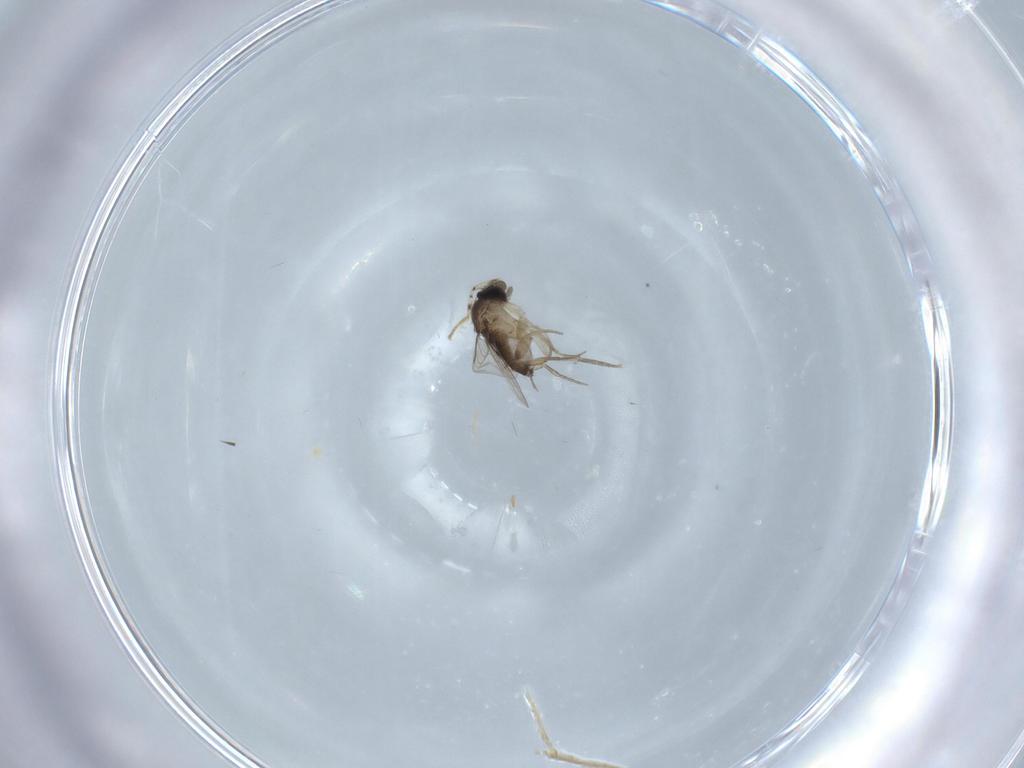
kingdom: Animalia
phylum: Arthropoda
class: Insecta
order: Diptera
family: Phoridae
